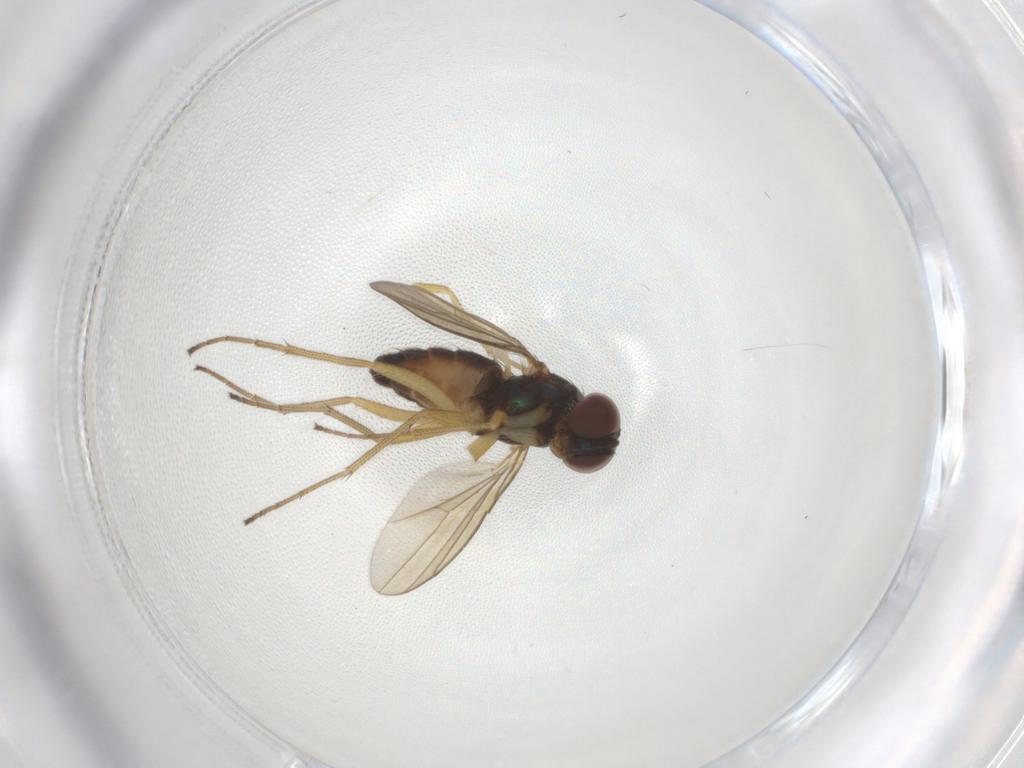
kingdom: Animalia
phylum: Arthropoda
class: Insecta
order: Diptera
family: Dolichopodidae
